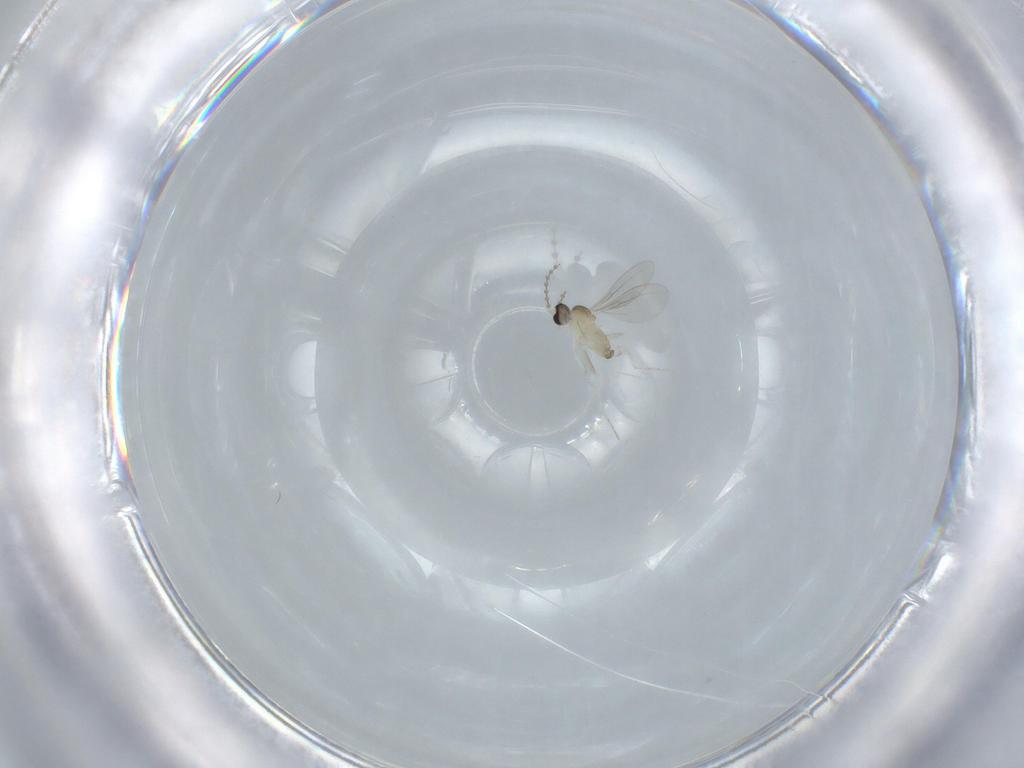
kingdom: Animalia
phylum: Arthropoda
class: Insecta
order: Diptera
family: Cecidomyiidae
